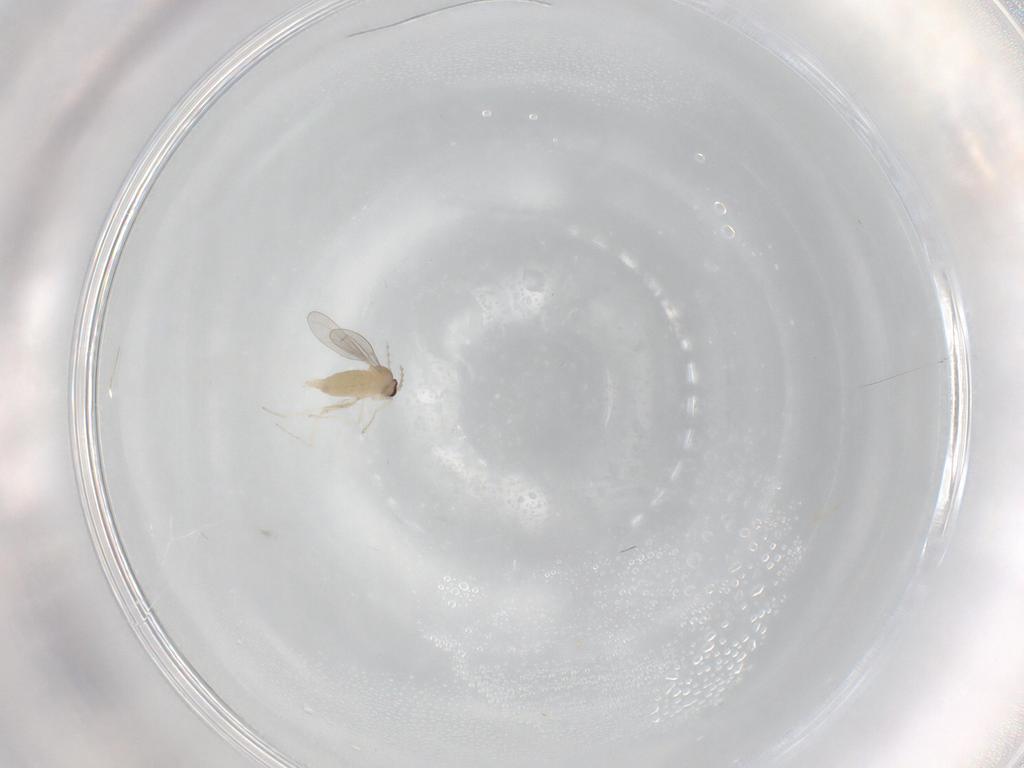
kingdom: Animalia
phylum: Arthropoda
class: Insecta
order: Diptera
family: Cecidomyiidae
